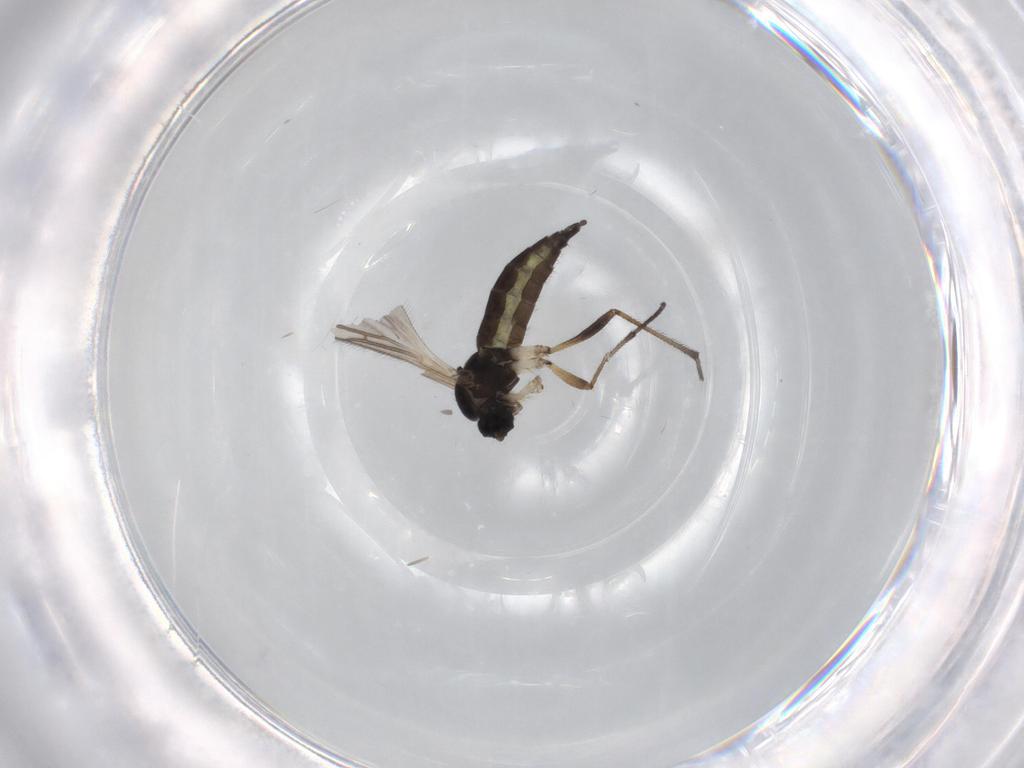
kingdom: Animalia
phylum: Arthropoda
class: Insecta
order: Diptera
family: Sciaridae
